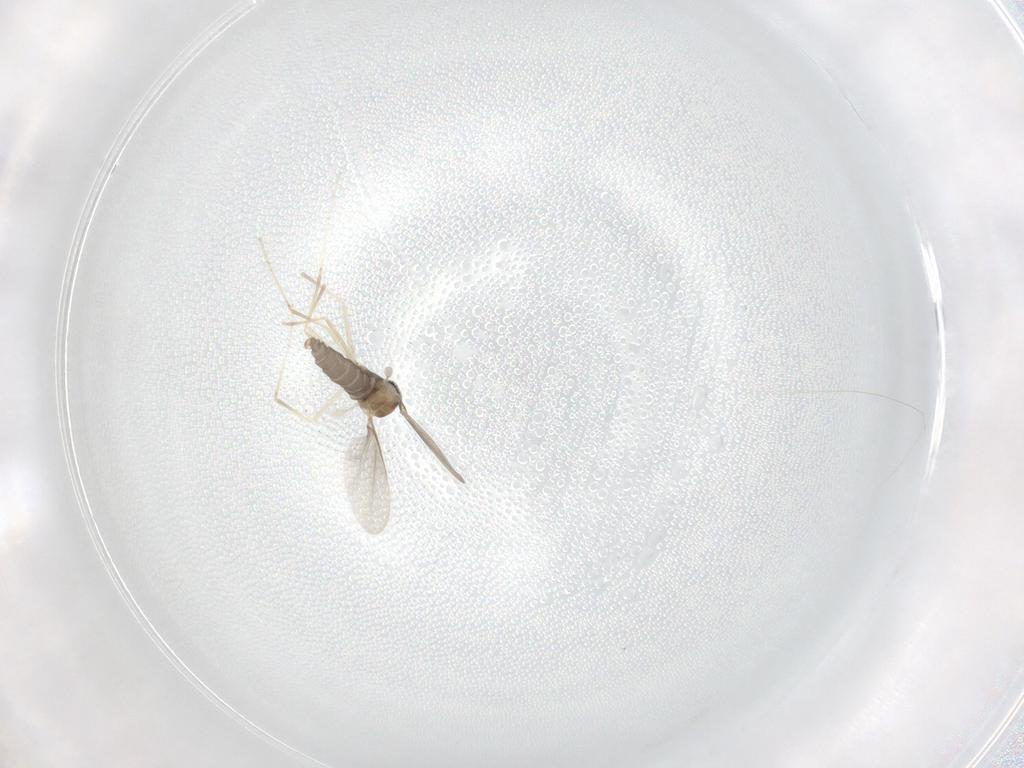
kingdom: Animalia
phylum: Arthropoda
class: Insecta
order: Diptera
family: Cecidomyiidae
